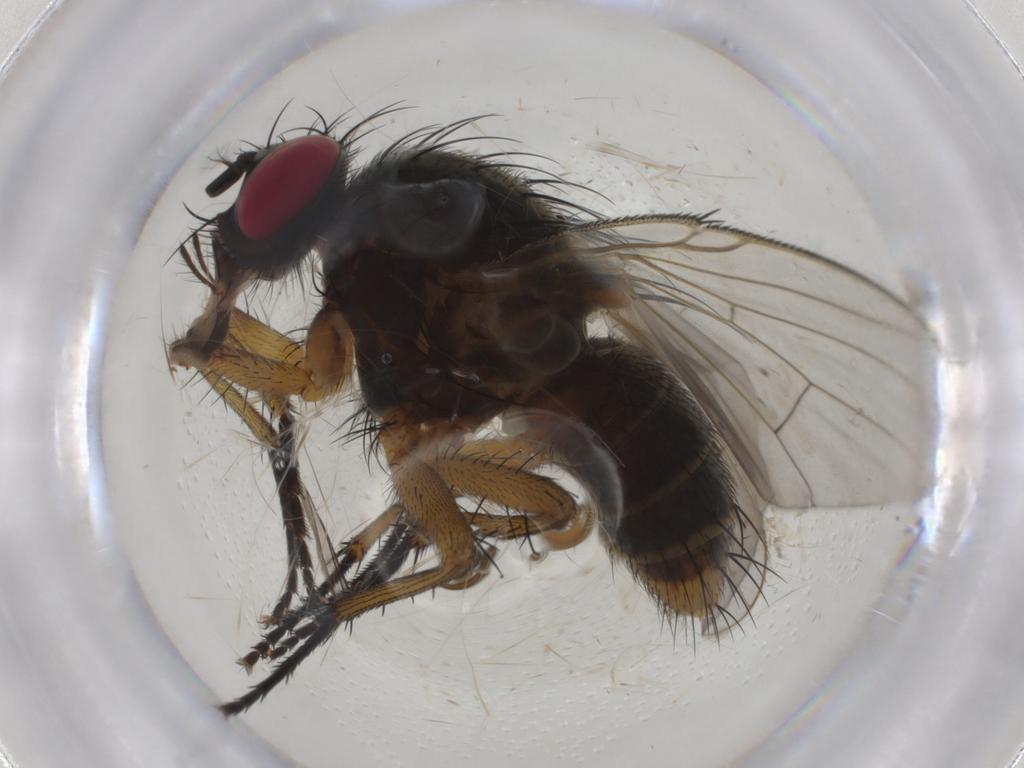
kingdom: Animalia
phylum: Arthropoda
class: Insecta
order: Diptera
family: Muscidae
